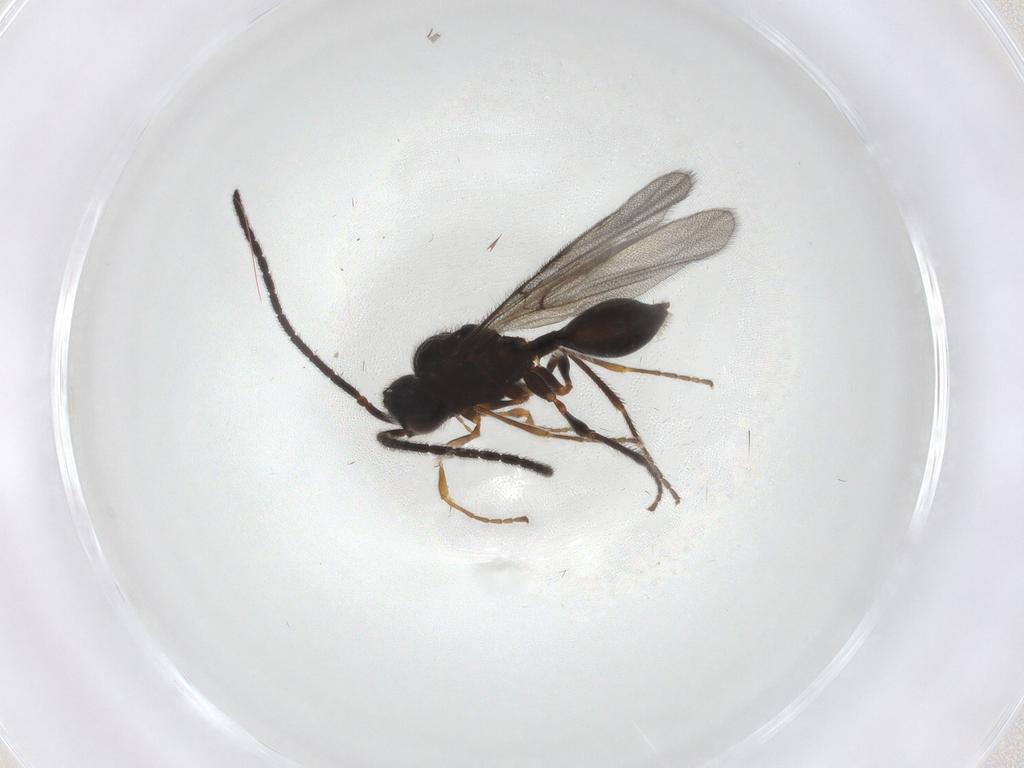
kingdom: Animalia
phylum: Arthropoda
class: Insecta
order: Hymenoptera
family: Diapriidae
